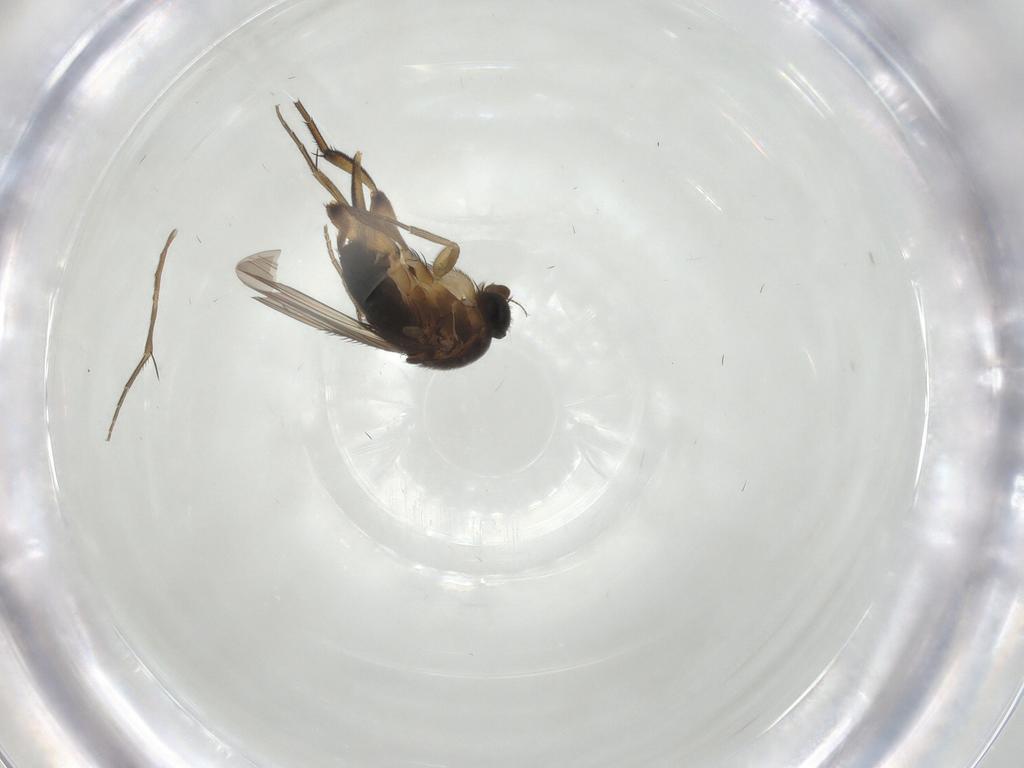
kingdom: Animalia
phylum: Arthropoda
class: Insecta
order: Diptera
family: Phoridae
